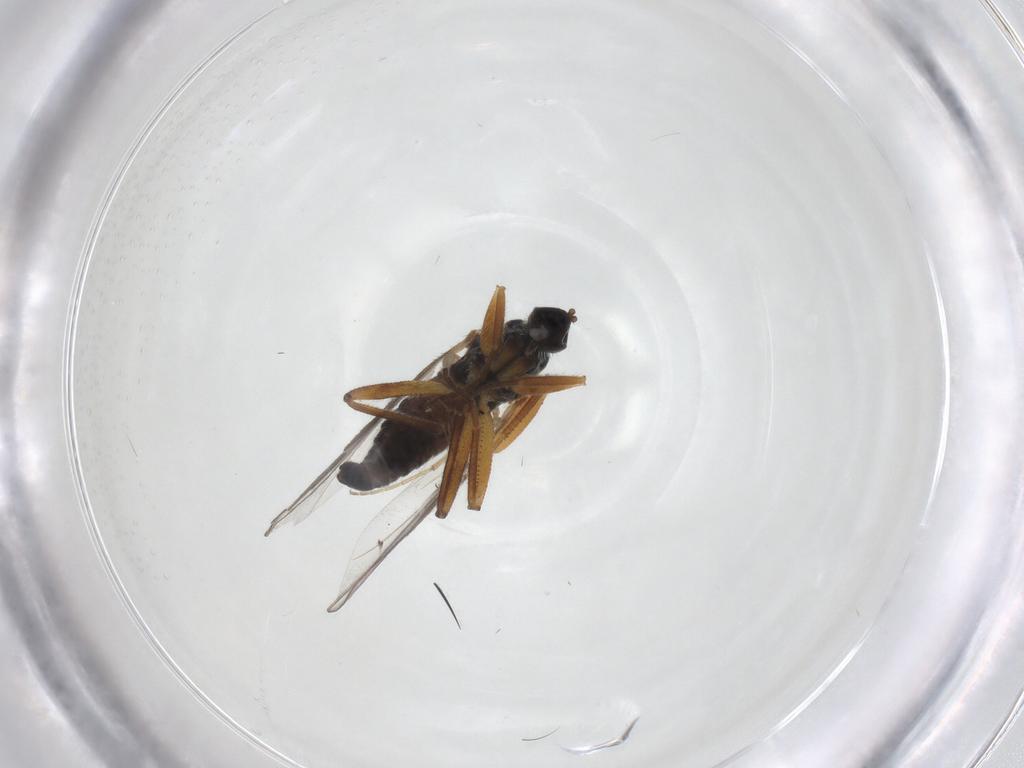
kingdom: Animalia
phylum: Arthropoda
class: Insecta
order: Diptera
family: Hybotidae
